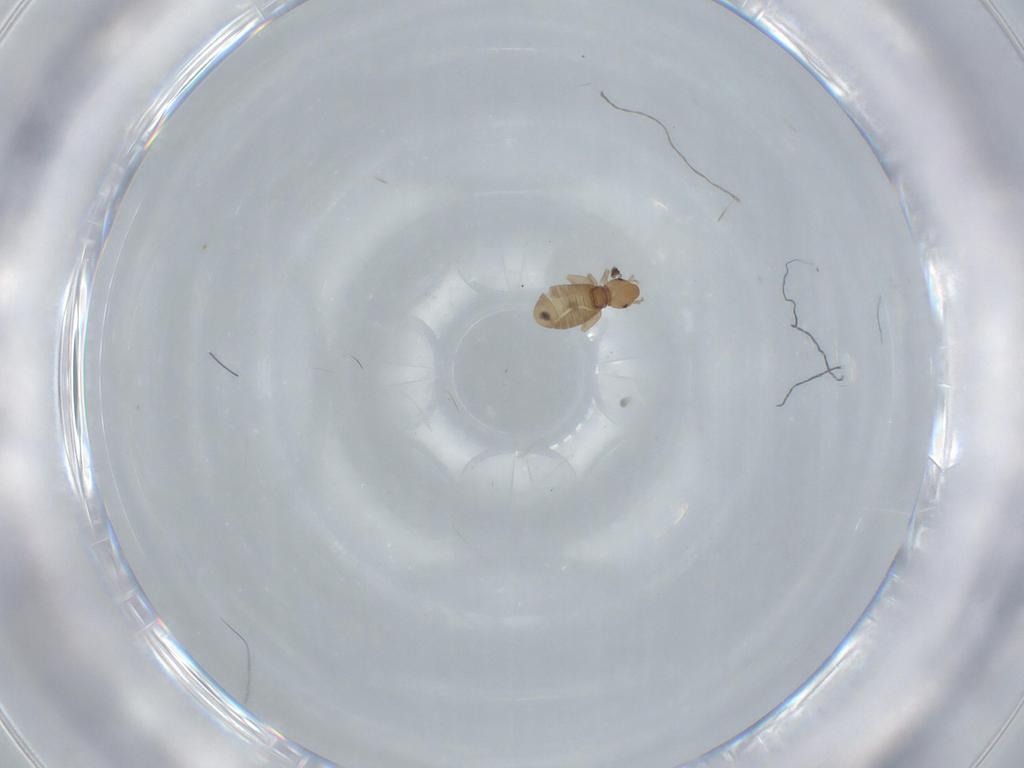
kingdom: Animalia
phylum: Arthropoda
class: Insecta
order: Psocodea
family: Liposcelididae
